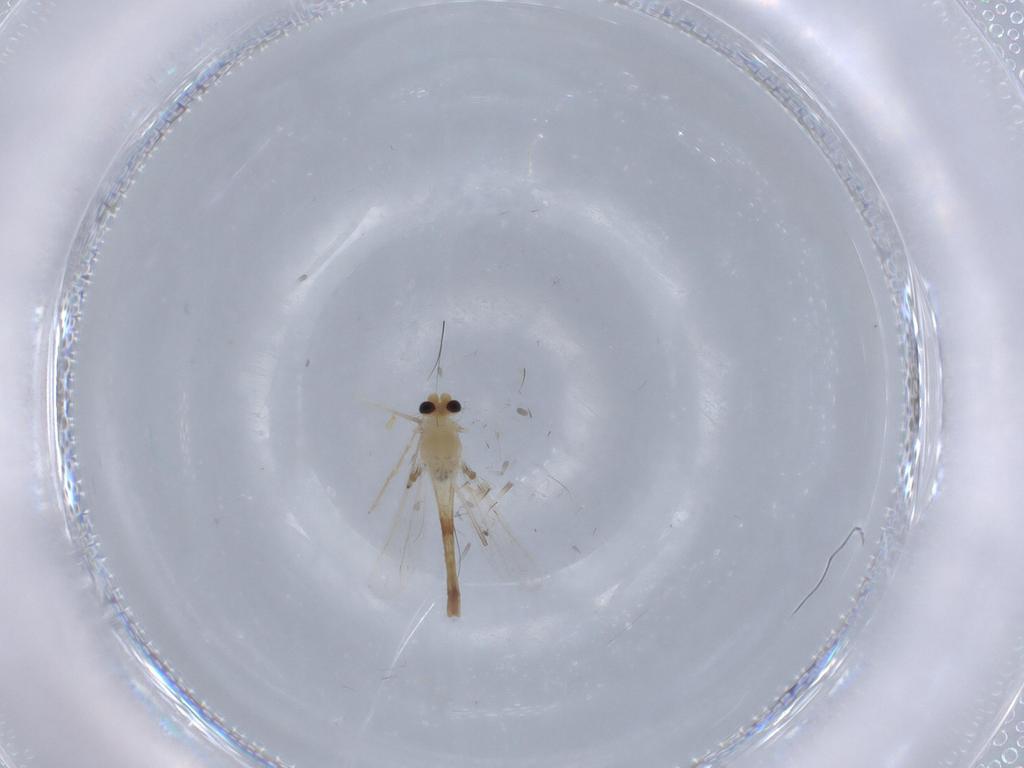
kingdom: Animalia
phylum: Arthropoda
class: Insecta
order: Diptera
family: Chironomidae
